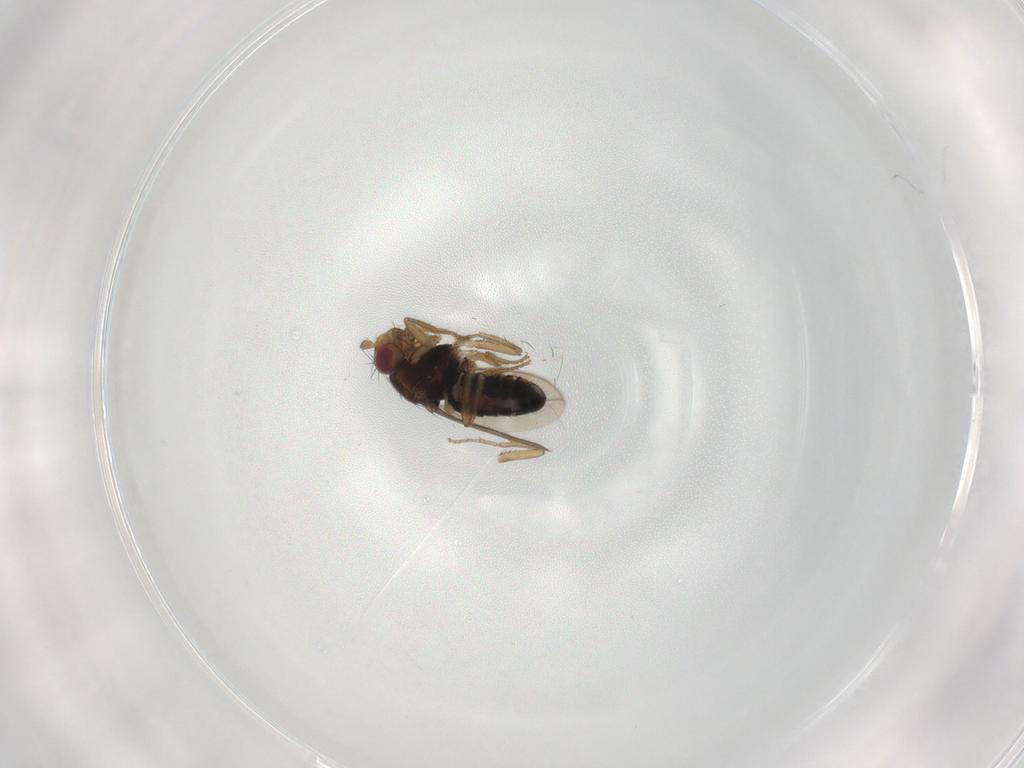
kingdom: Animalia
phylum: Arthropoda
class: Insecta
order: Diptera
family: Sphaeroceridae
